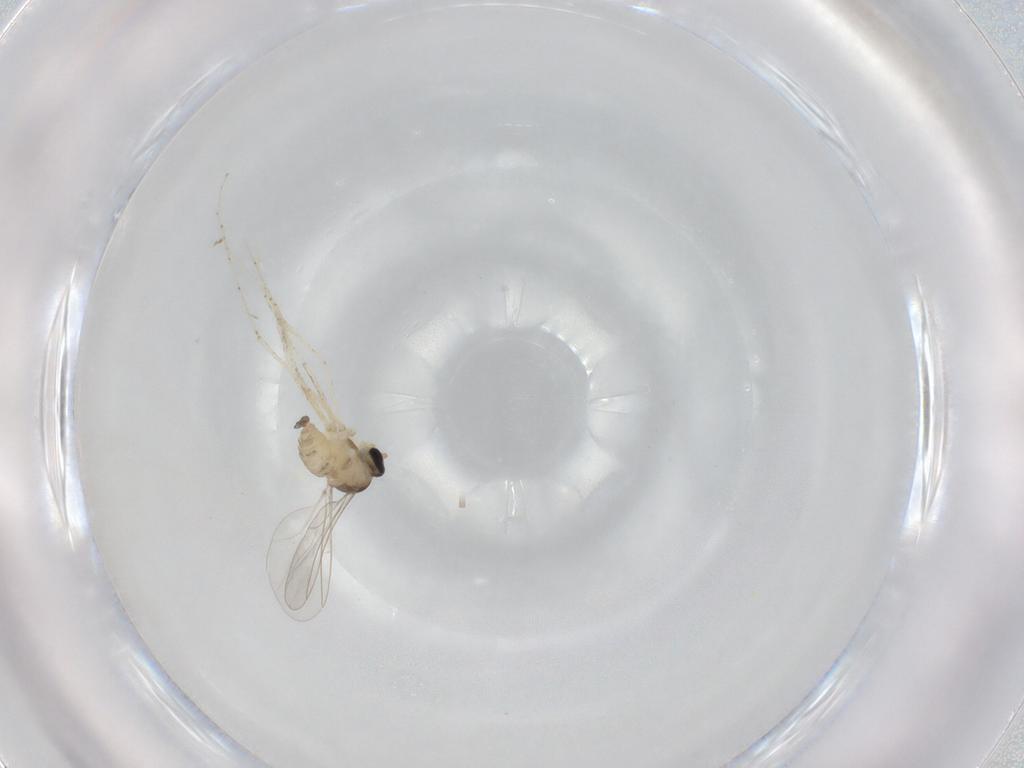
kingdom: Animalia
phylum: Arthropoda
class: Insecta
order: Diptera
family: Cecidomyiidae
